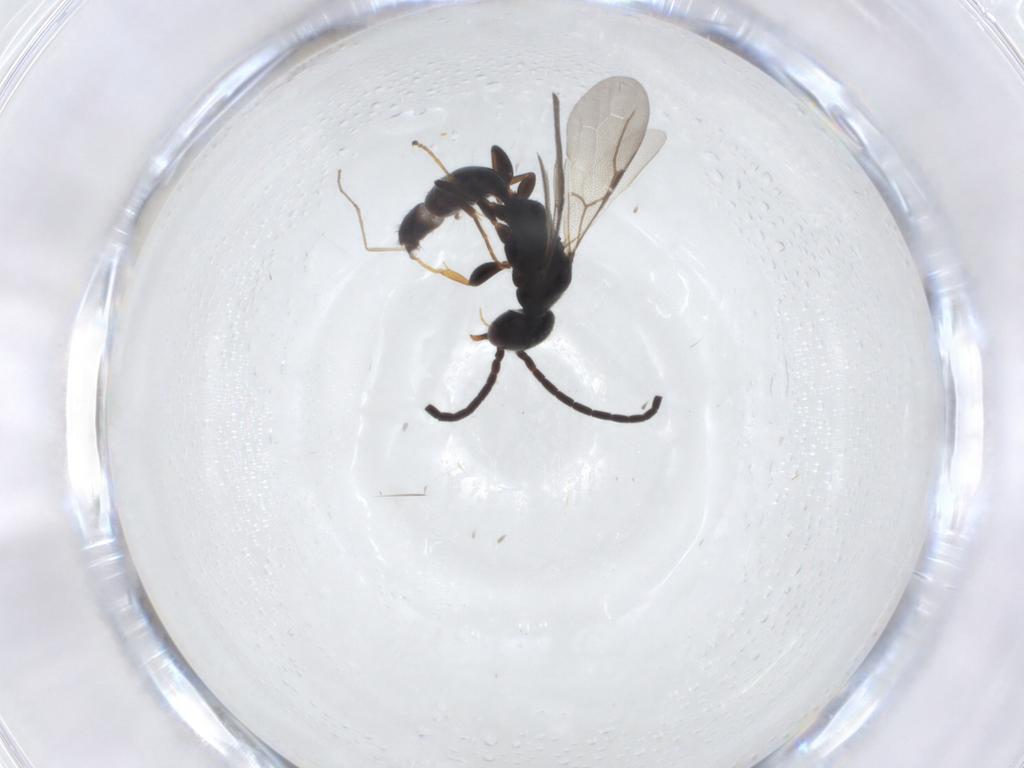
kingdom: Animalia
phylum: Arthropoda
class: Insecta
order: Hymenoptera
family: Bethylidae
